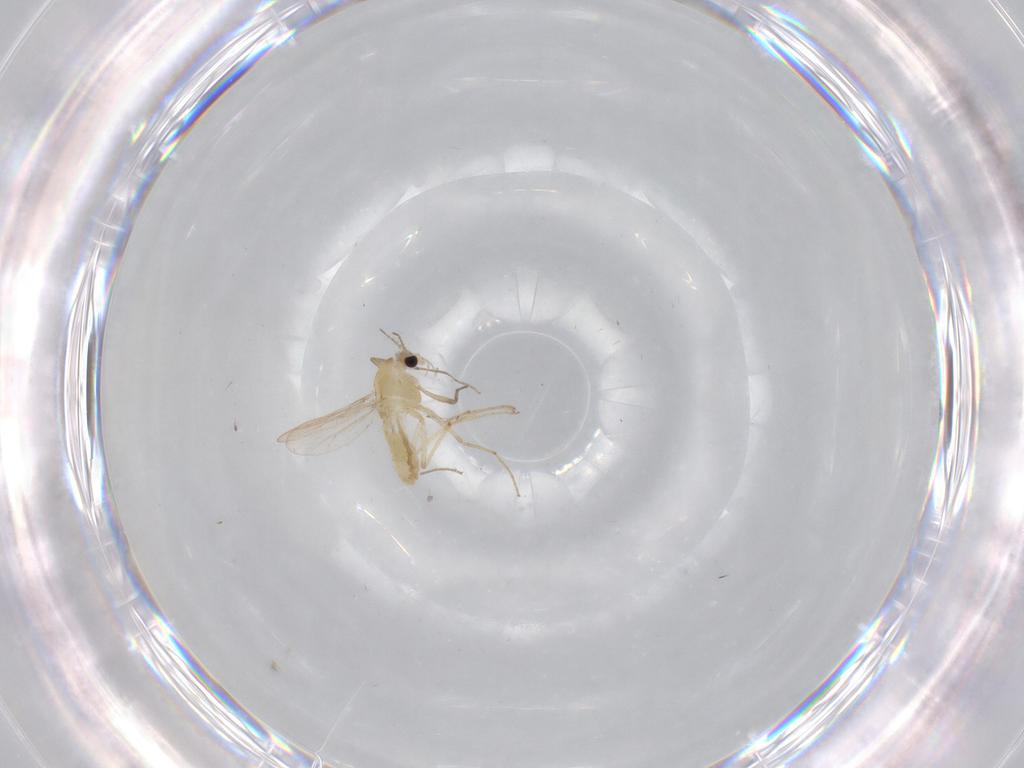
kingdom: Animalia
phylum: Arthropoda
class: Insecta
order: Diptera
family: Chironomidae
